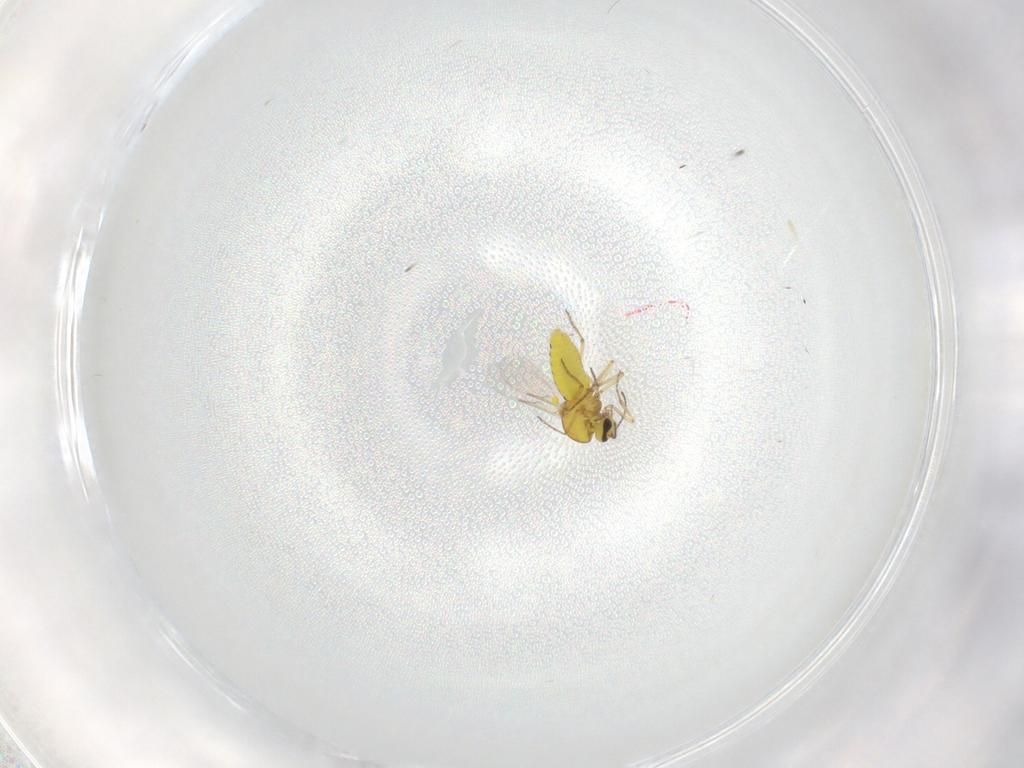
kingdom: Animalia
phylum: Arthropoda
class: Insecta
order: Diptera
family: Ceratopogonidae
